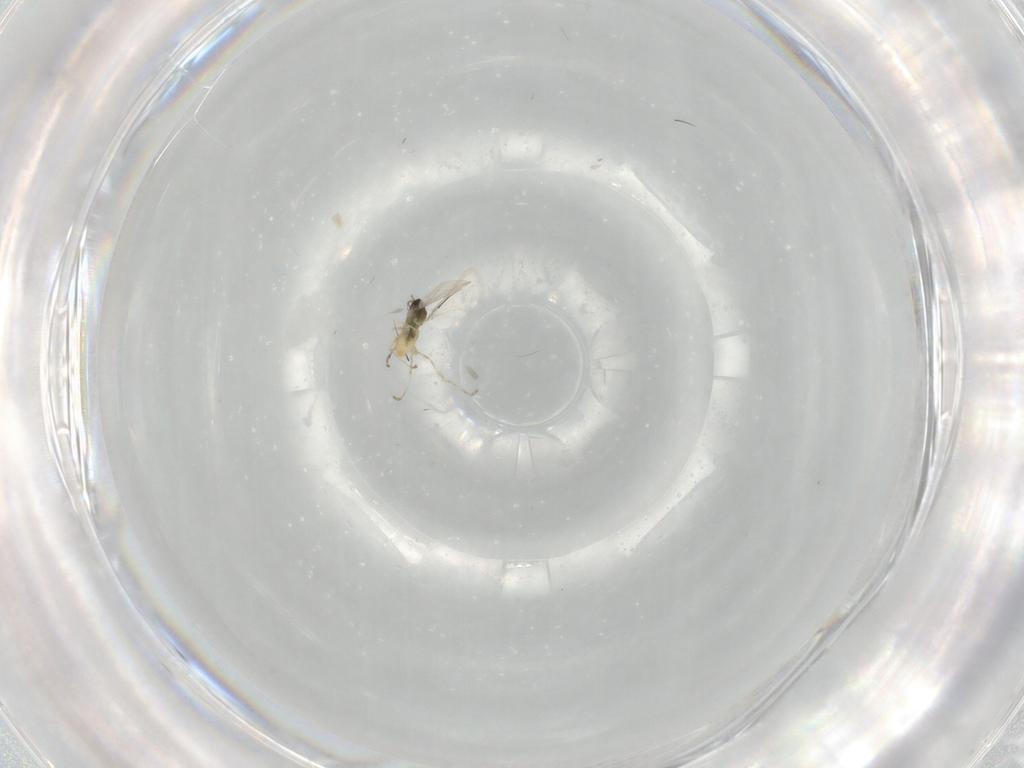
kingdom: Animalia
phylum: Arthropoda
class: Insecta
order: Diptera
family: Cecidomyiidae
